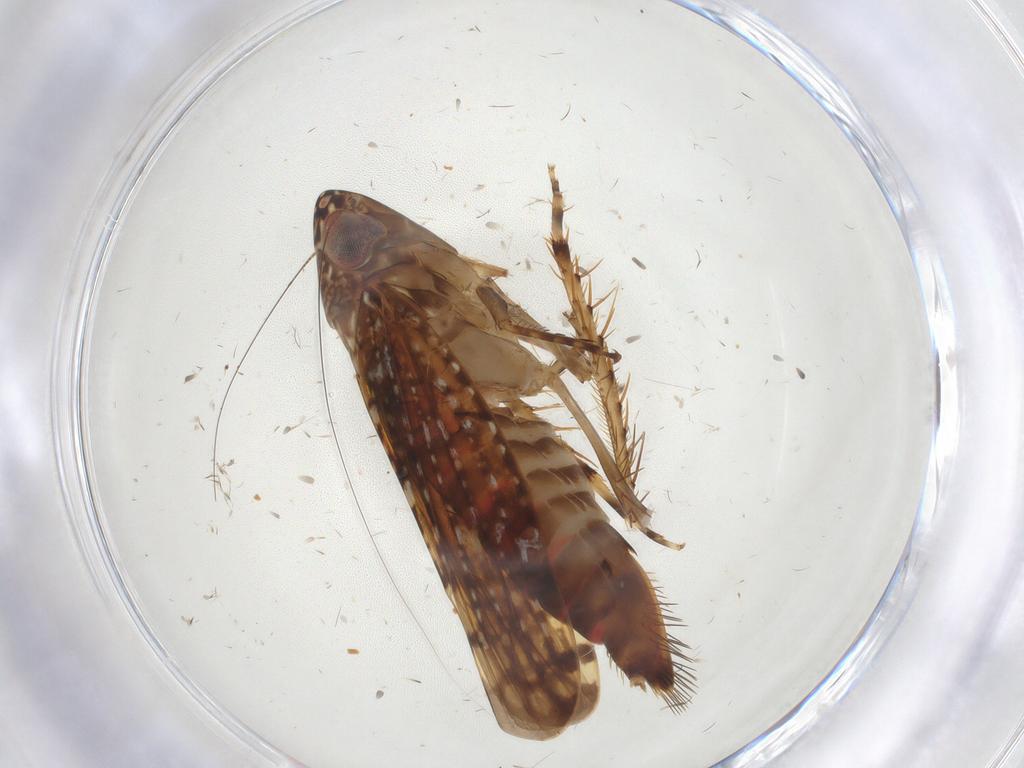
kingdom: Animalia
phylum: Arthropoda
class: Insecta
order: Hemiptera
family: Cicadellidae
